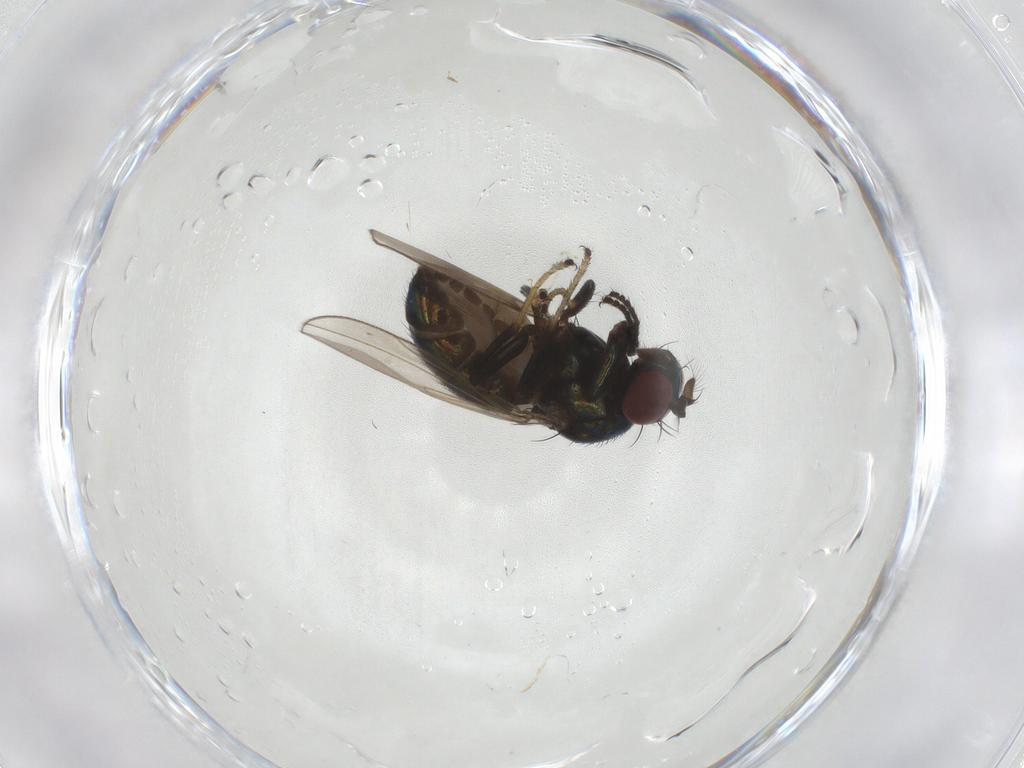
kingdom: Animalia
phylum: Arthropoda
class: Insecta
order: Diptera
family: Ephydridae
